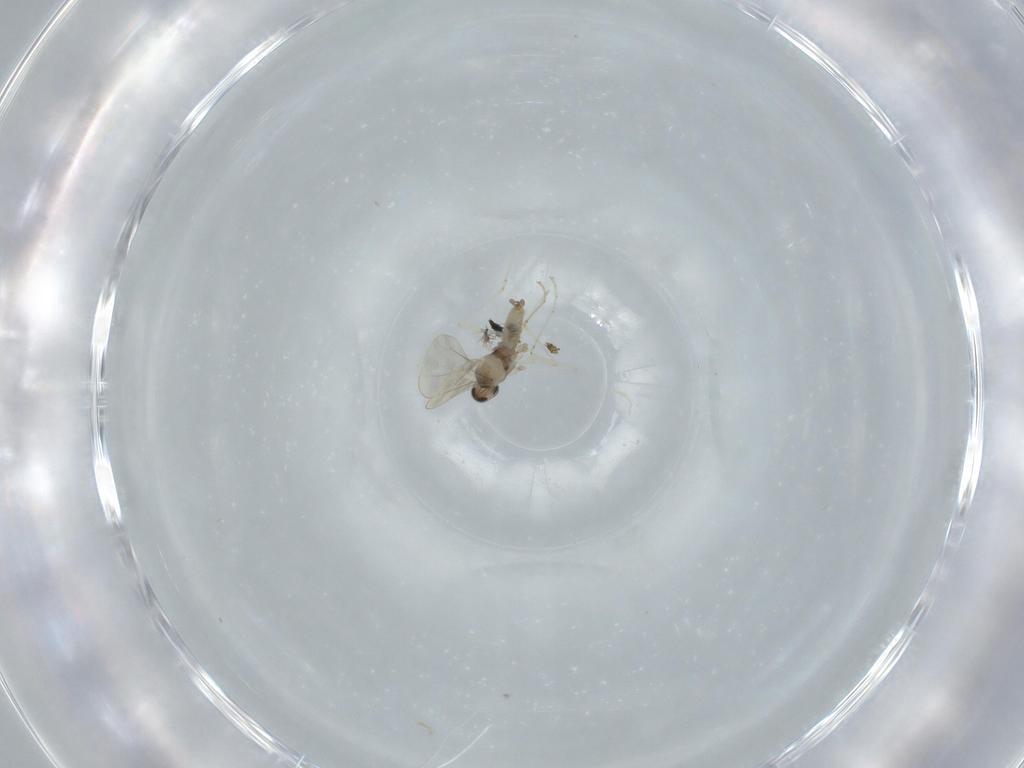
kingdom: Animalia
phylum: Arthropoda
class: Insecta
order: Diptera
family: Cecidomyiidae
